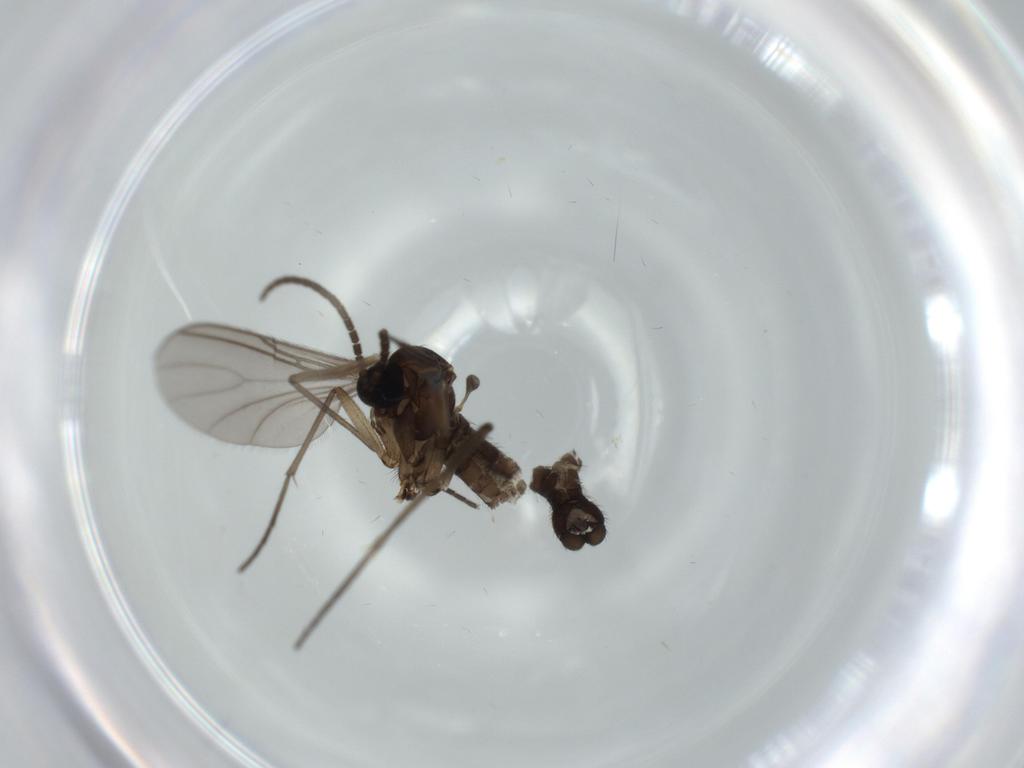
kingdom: Animalia
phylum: Arthropoda
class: Insecta
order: Diptera
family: Sciaridae
